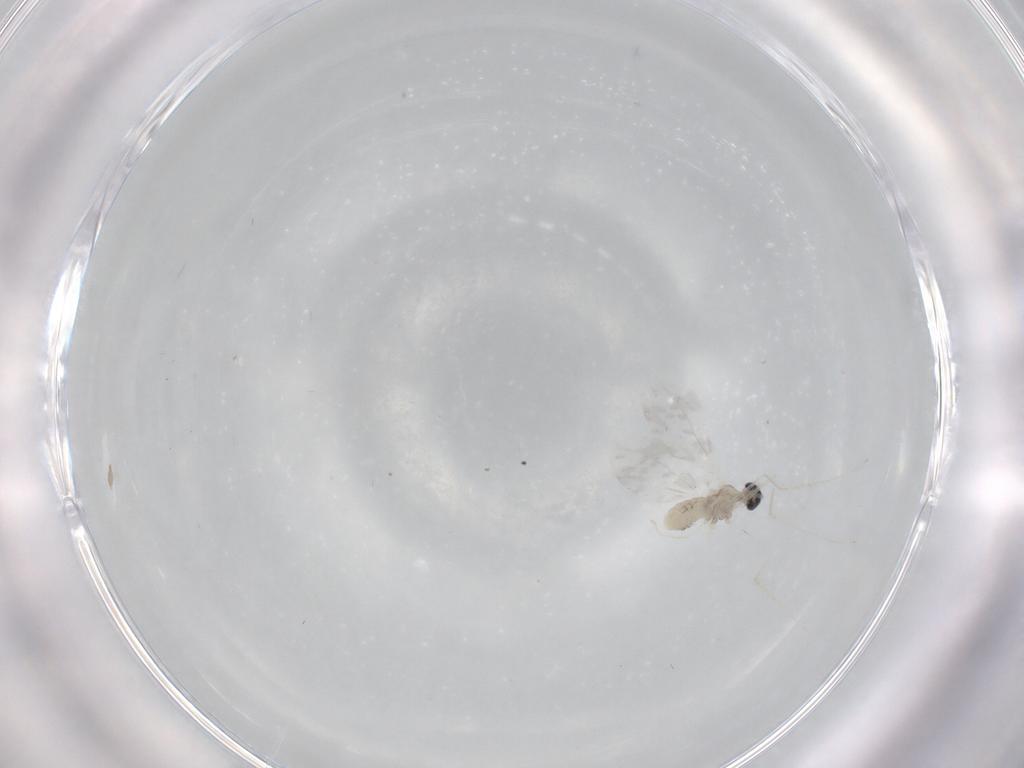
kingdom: Animalia
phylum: Arthropoda
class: Insecta
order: Diptera
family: Cecidomyiidae
